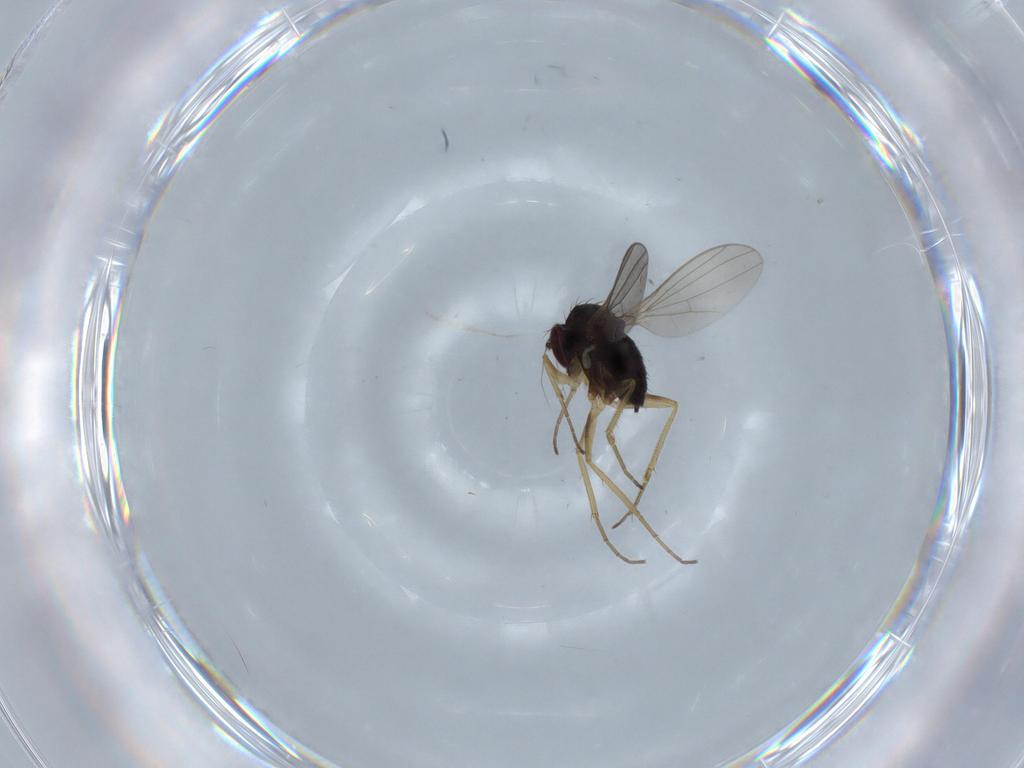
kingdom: Animalia
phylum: Arthropoda
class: Insecta
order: Diptera
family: Dolichopodidae
